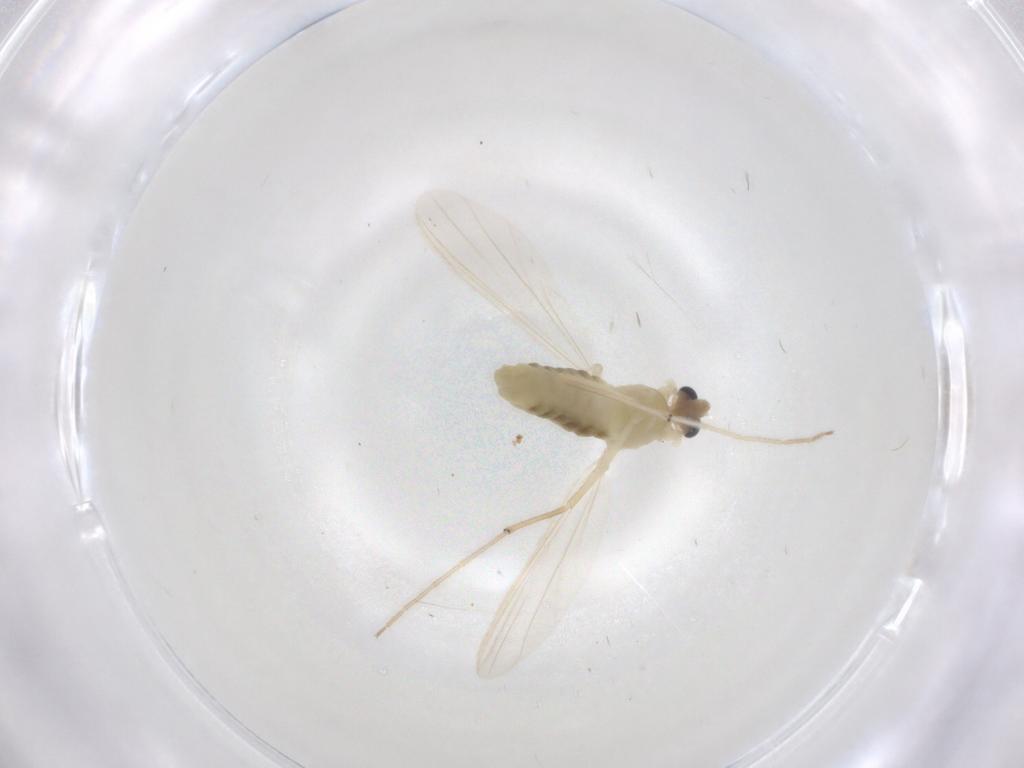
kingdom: Animalia
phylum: Arthropoda
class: Insecta
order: Diptera
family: Chironomidae
